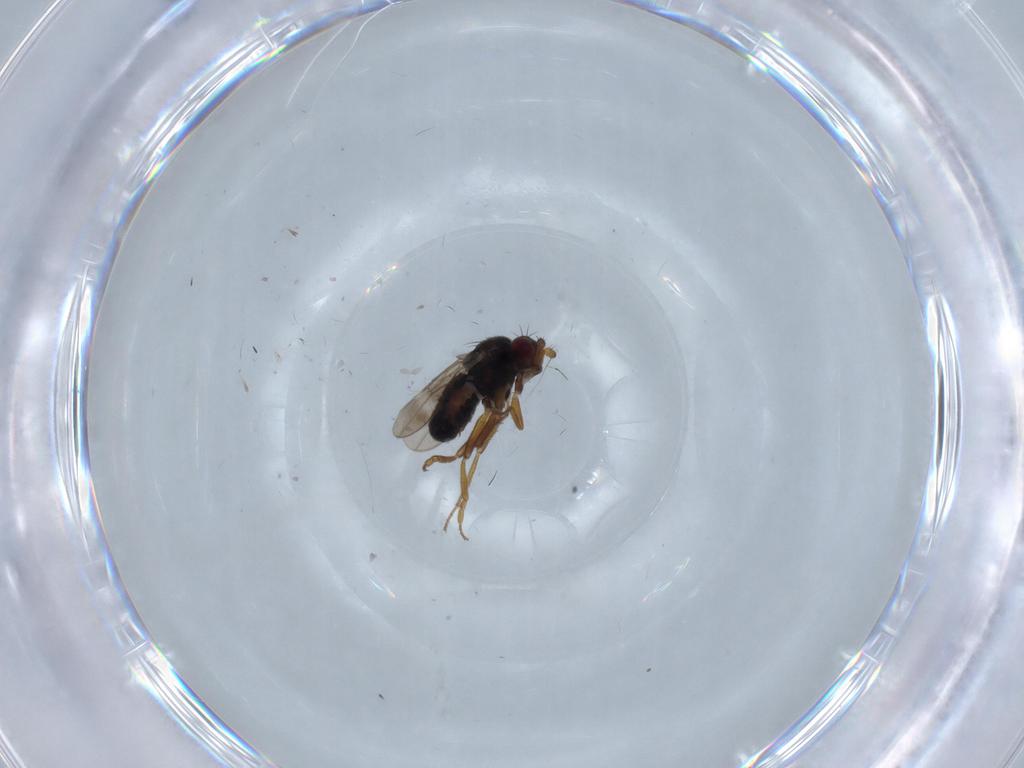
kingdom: Animalia
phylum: Arthropoda
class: Insecta
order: Diptera
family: Sphaeroceridae
